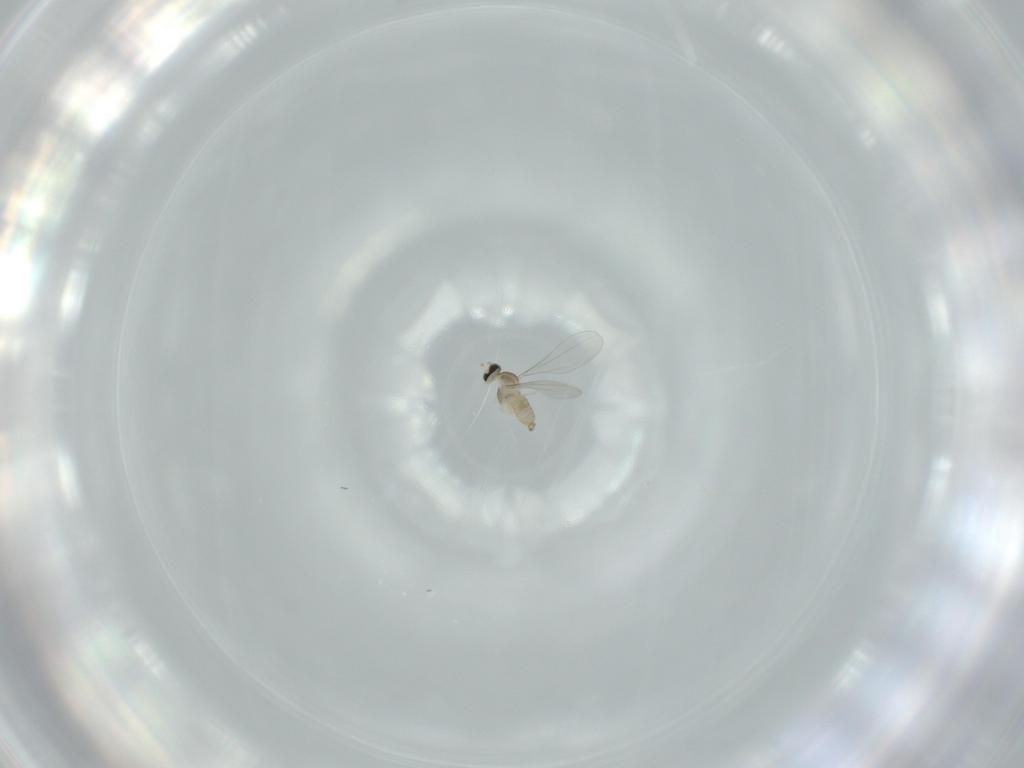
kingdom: Animalia
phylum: Arthropoda
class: Insecta
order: Diptera
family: Cecidomyiidae
